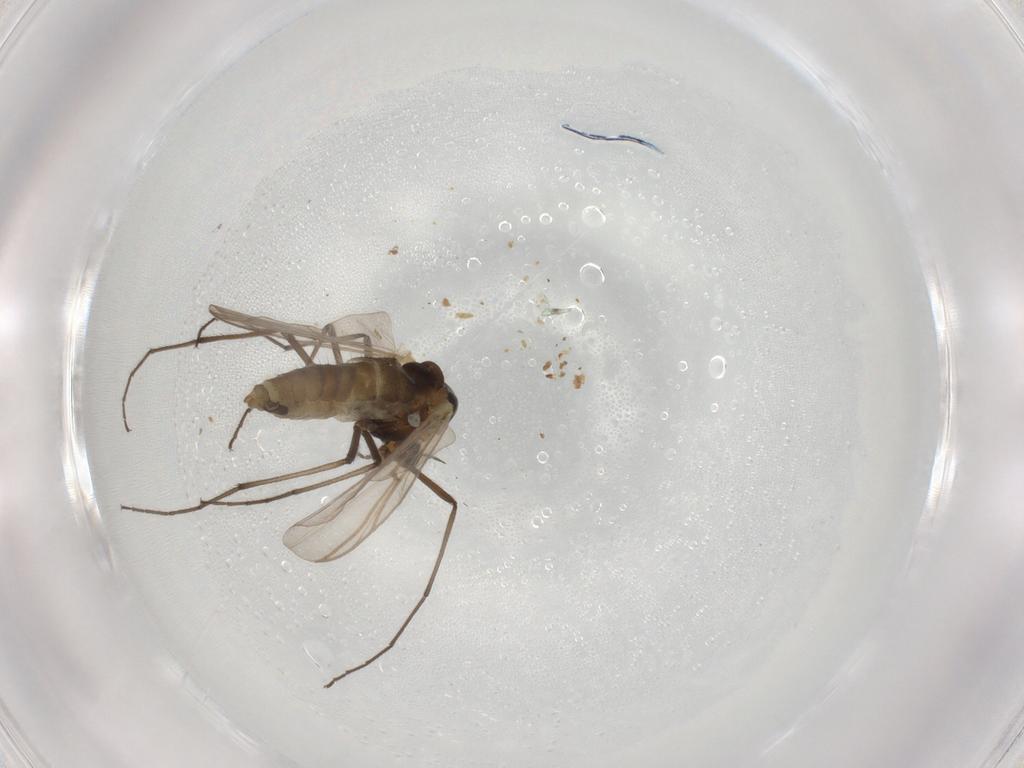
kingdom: Animalia
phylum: Arthropoda
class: Insecta
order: Diptera
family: Chironomidae
